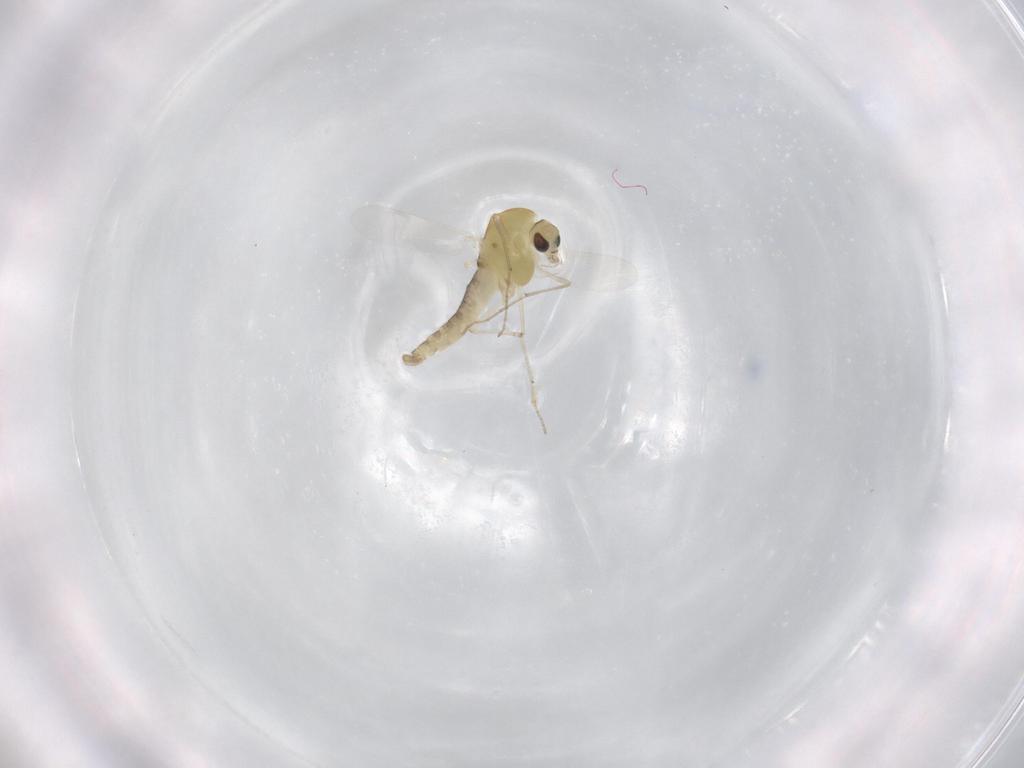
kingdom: Animalia
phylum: Arthropoda
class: Insecta
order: Diptera
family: Chironomidae
